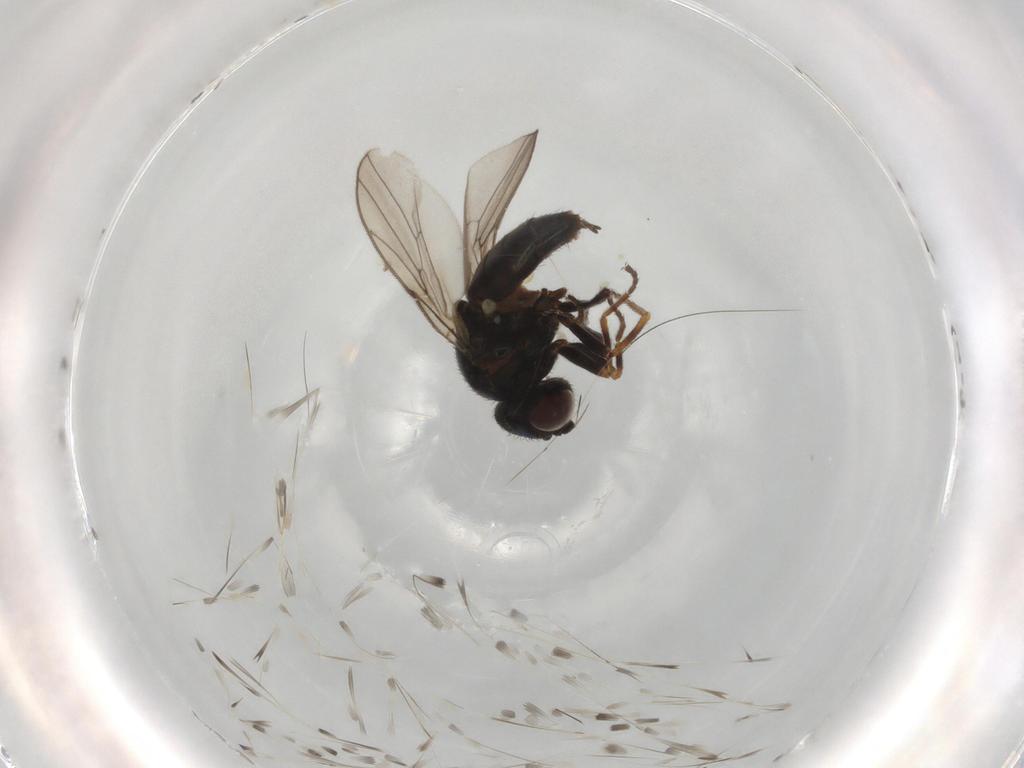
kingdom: Animalia
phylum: Arthropoda
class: Insecta
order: Diptera
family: Chloropidae
